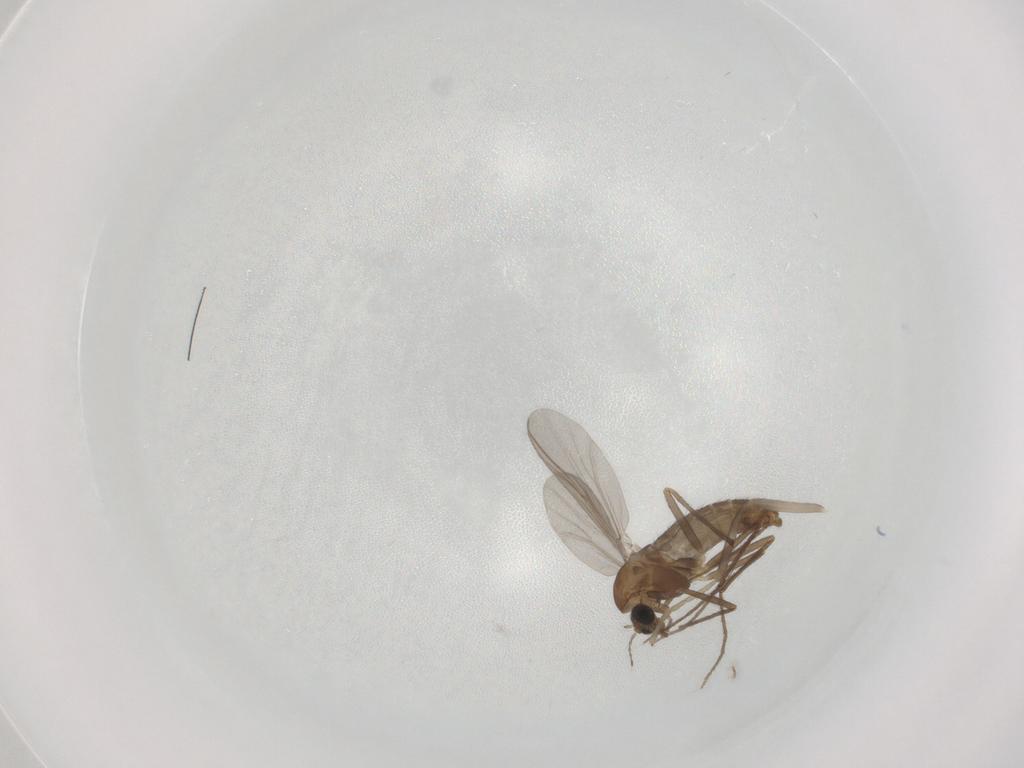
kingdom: Animalia
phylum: Arthropoda
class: Insecta
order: Diptera
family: Chironomidae
